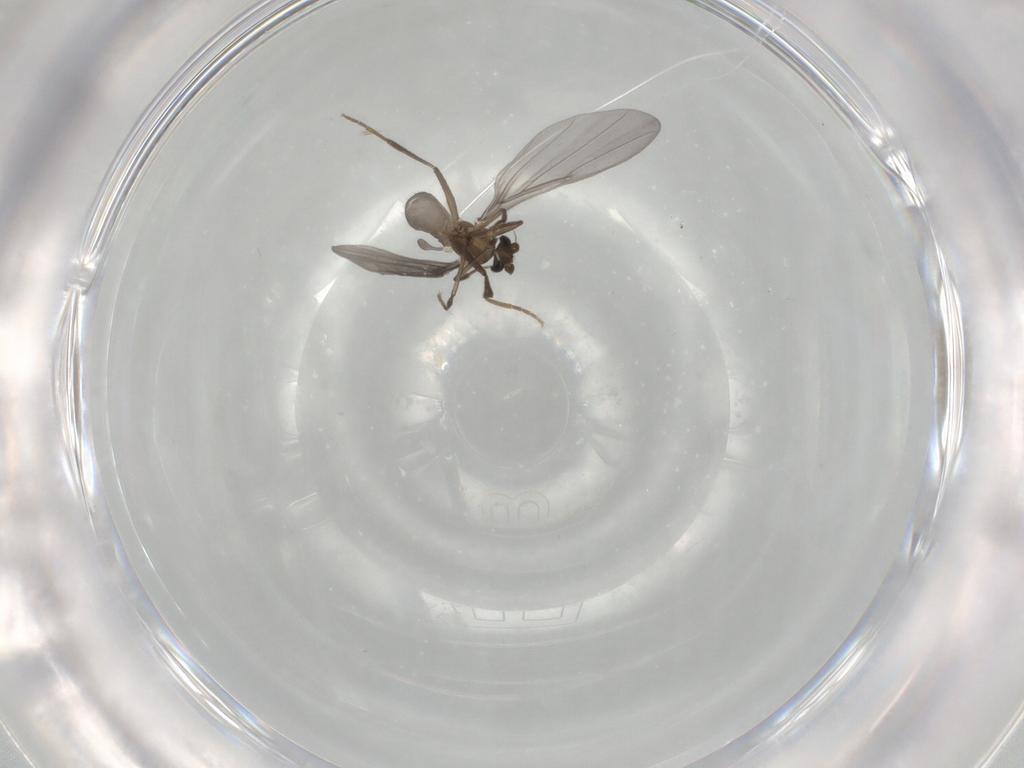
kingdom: Animalia
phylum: Arthropoda
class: Insecta
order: Diptera
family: Phoridae
